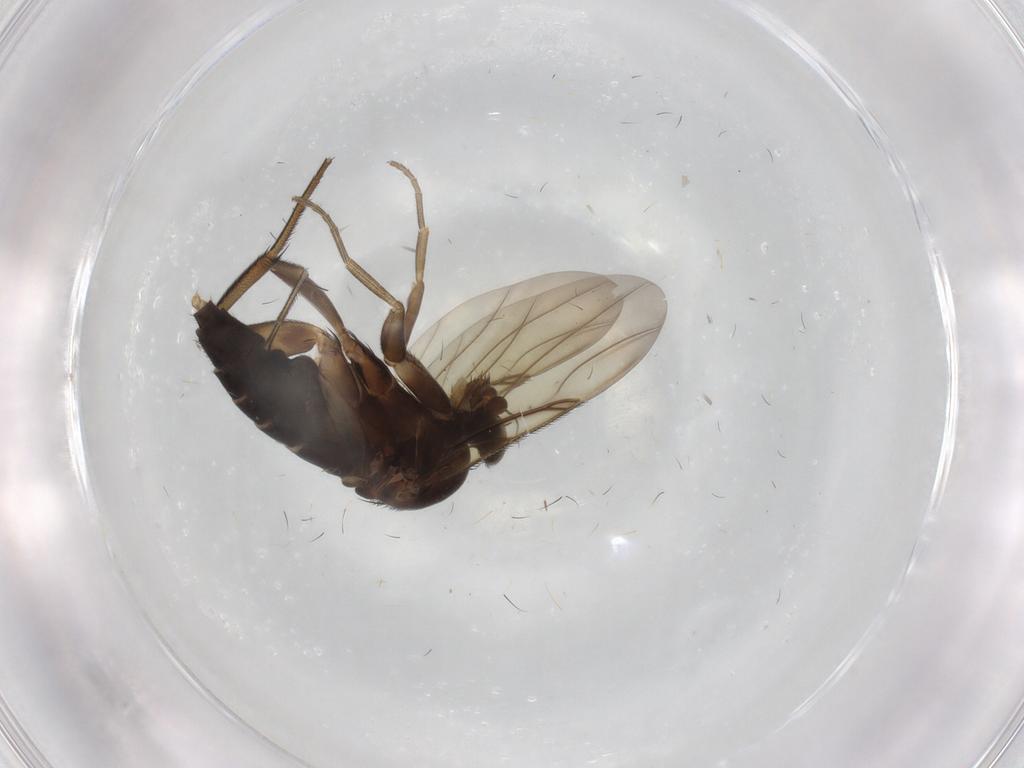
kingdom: Animalia
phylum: Arthropoda
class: Insecta
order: Diptera
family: Phoridae
